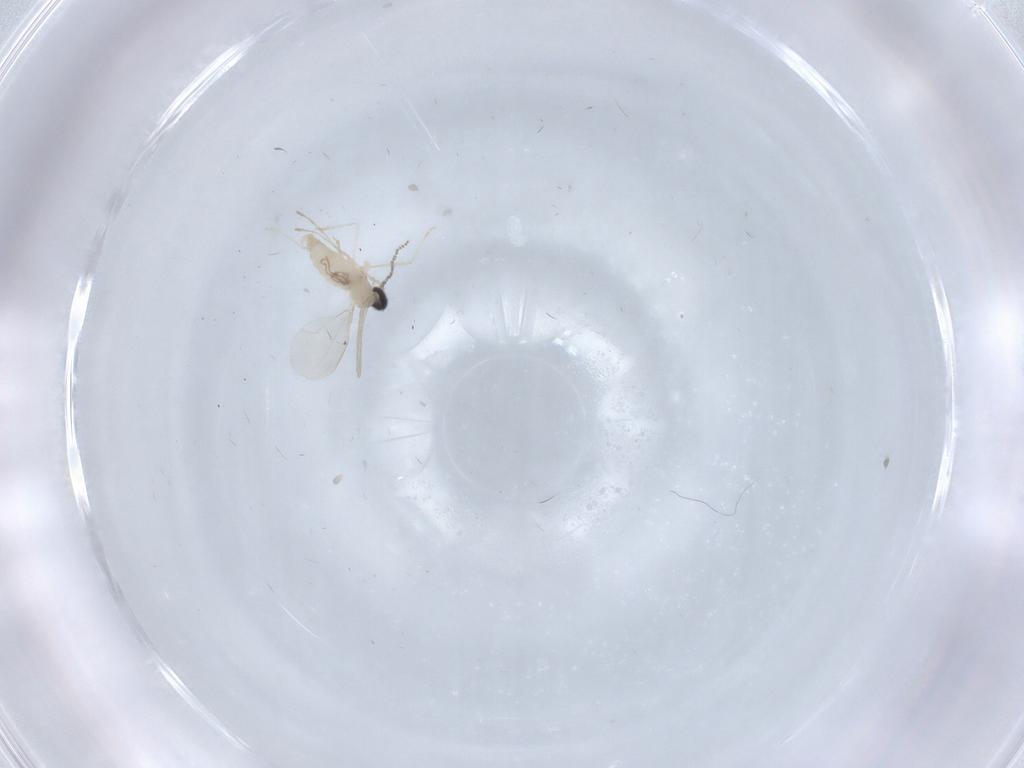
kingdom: Animalia
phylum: Arthropoda
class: Insecta
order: Diptera
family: Cecidomyiidae
